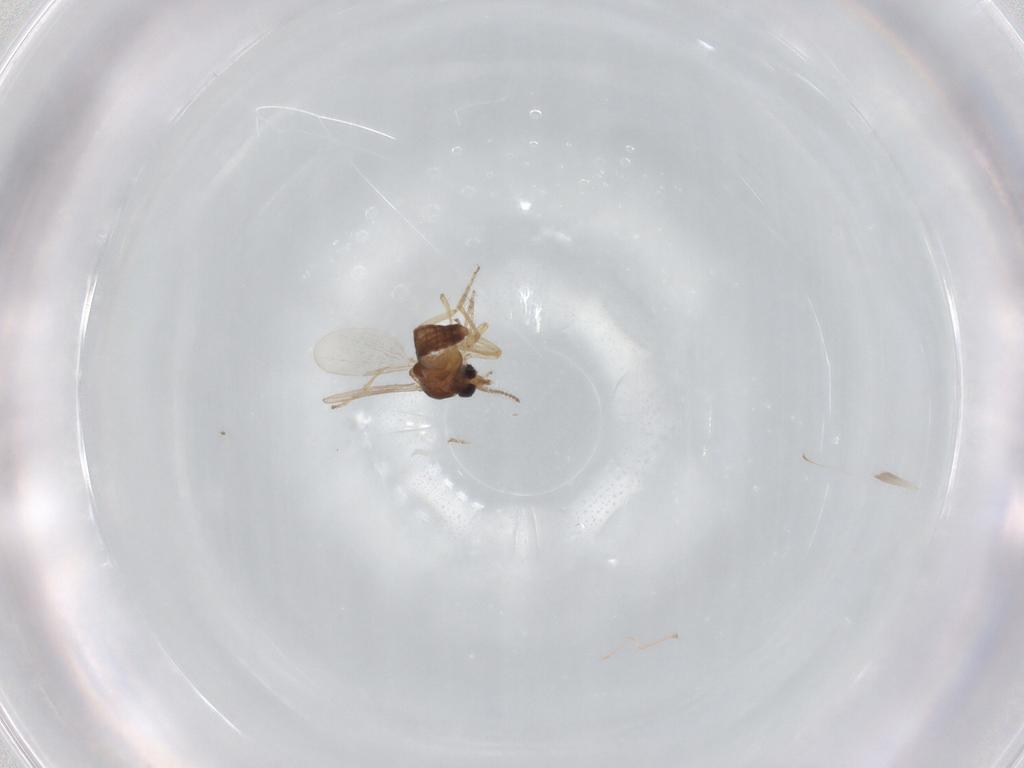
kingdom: Animalia
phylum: Arthropoda
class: Insecta
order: Diptera
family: Ceratopogonidae
